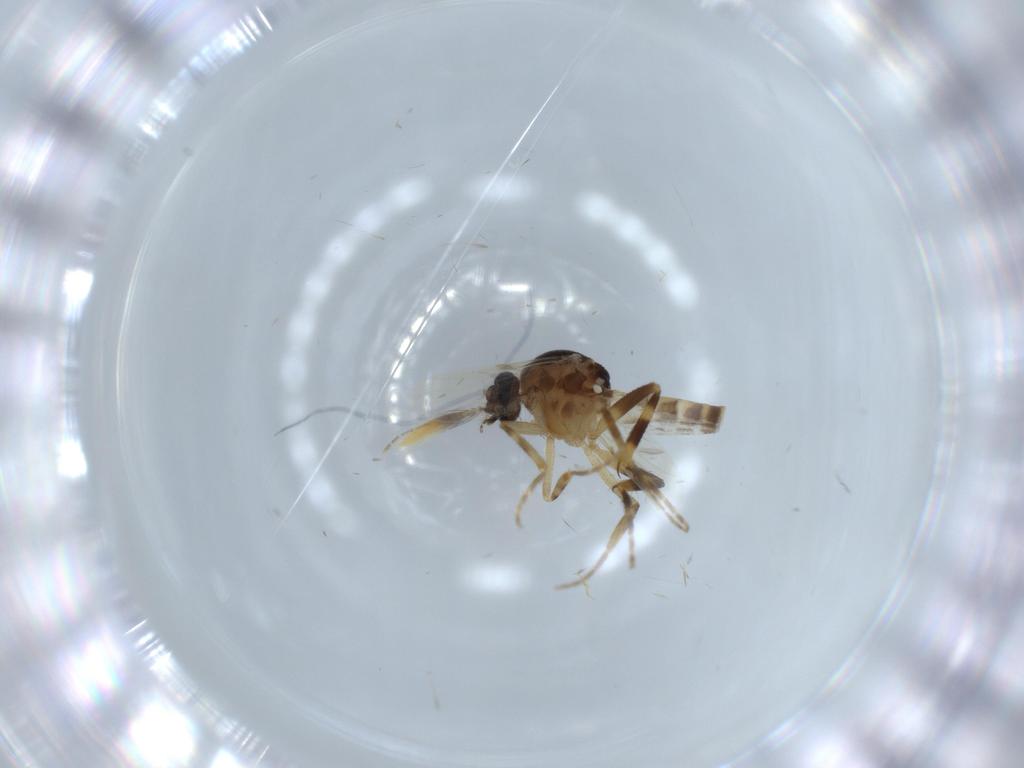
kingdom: Animalia
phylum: Arthropoda
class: Insecta
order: Diptera
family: Ceratopogonidae
